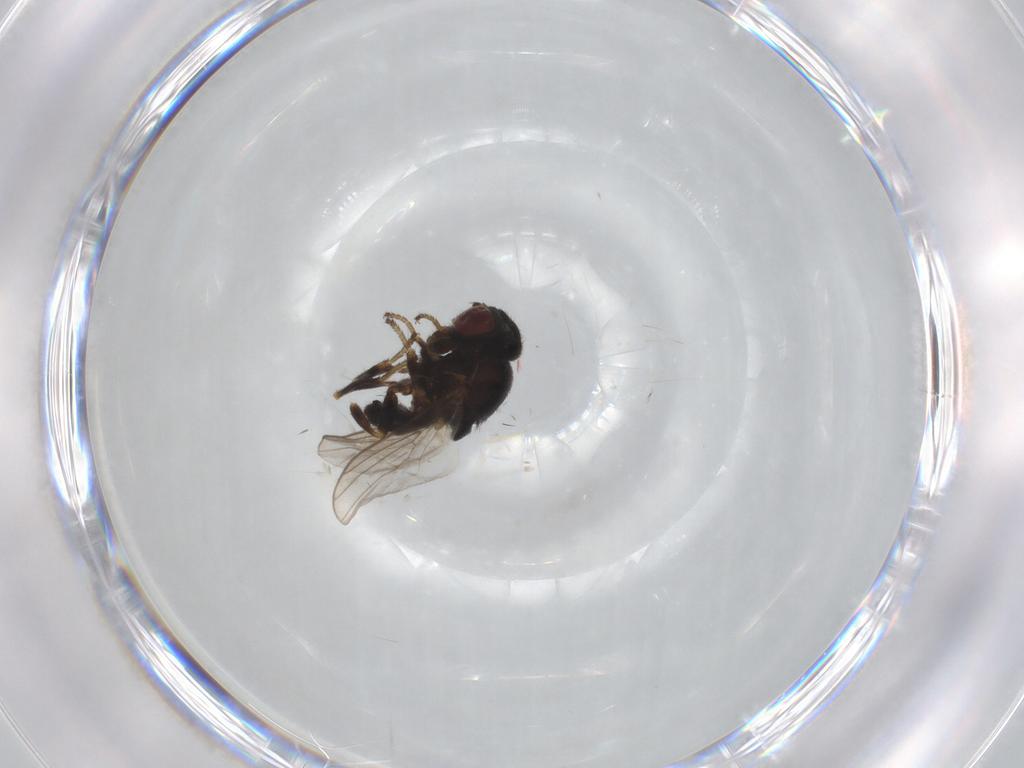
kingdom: Animalia
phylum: Arthropoda
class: Insecta
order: Diptera
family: Chloropidae
